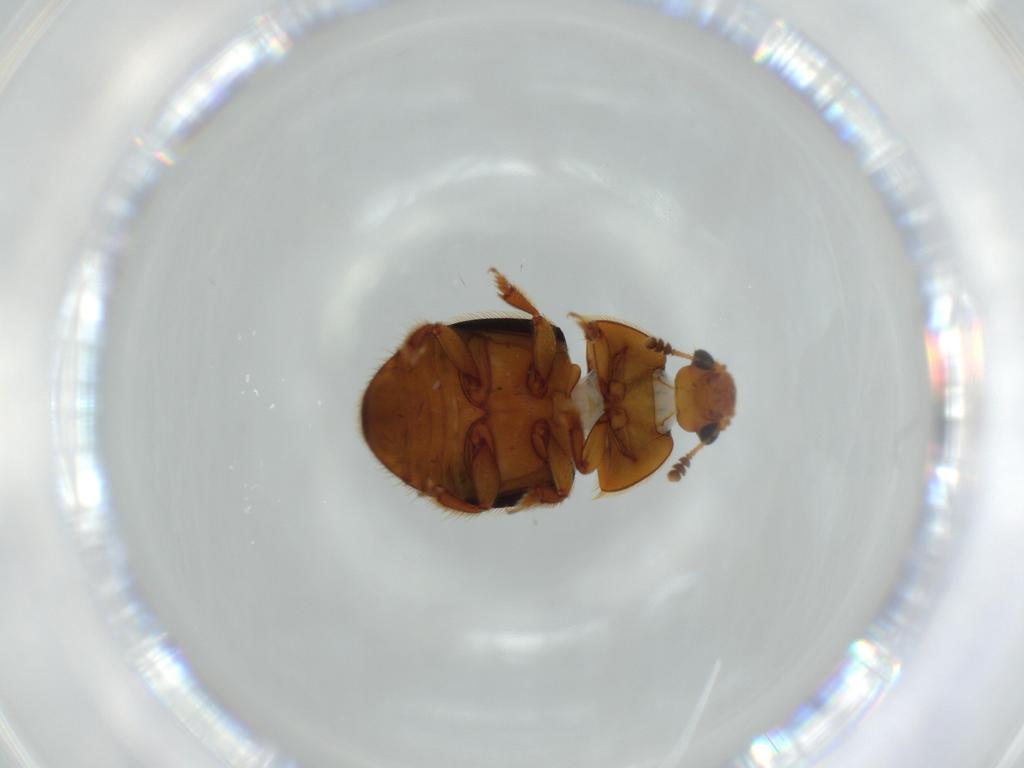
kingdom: Animalia
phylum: Arthropoda
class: Insecta
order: Coleoptera
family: Nitidulidae
